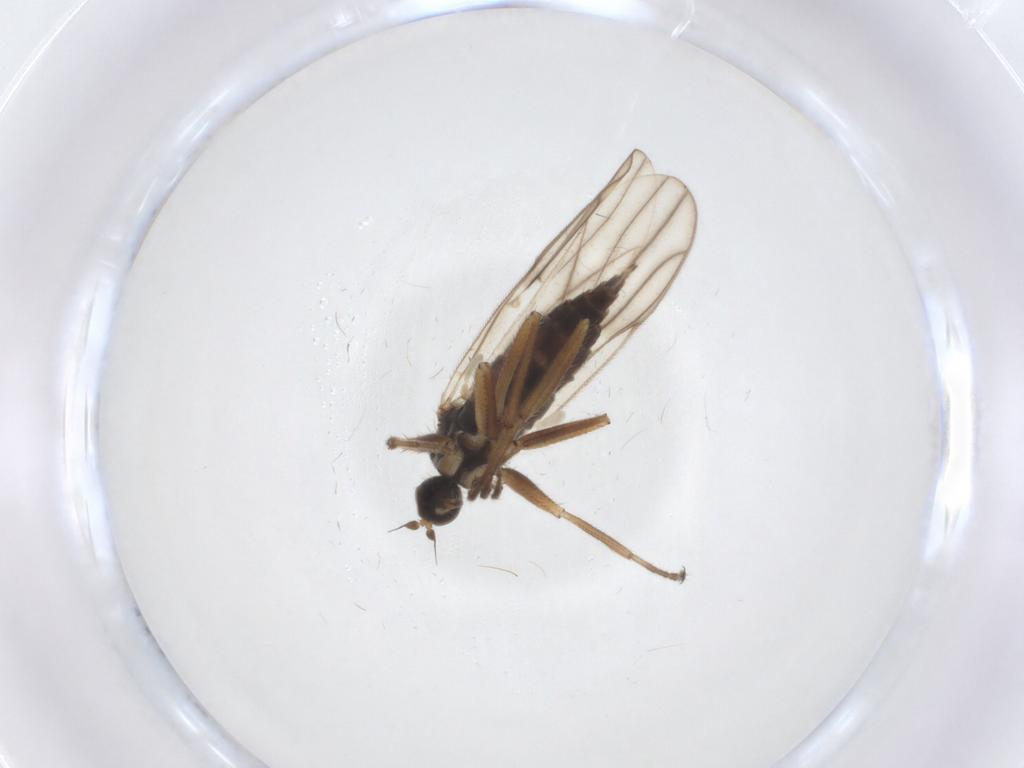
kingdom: Animalia
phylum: Arthropoda
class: Insecta
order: Diptera
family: Hybotidae
